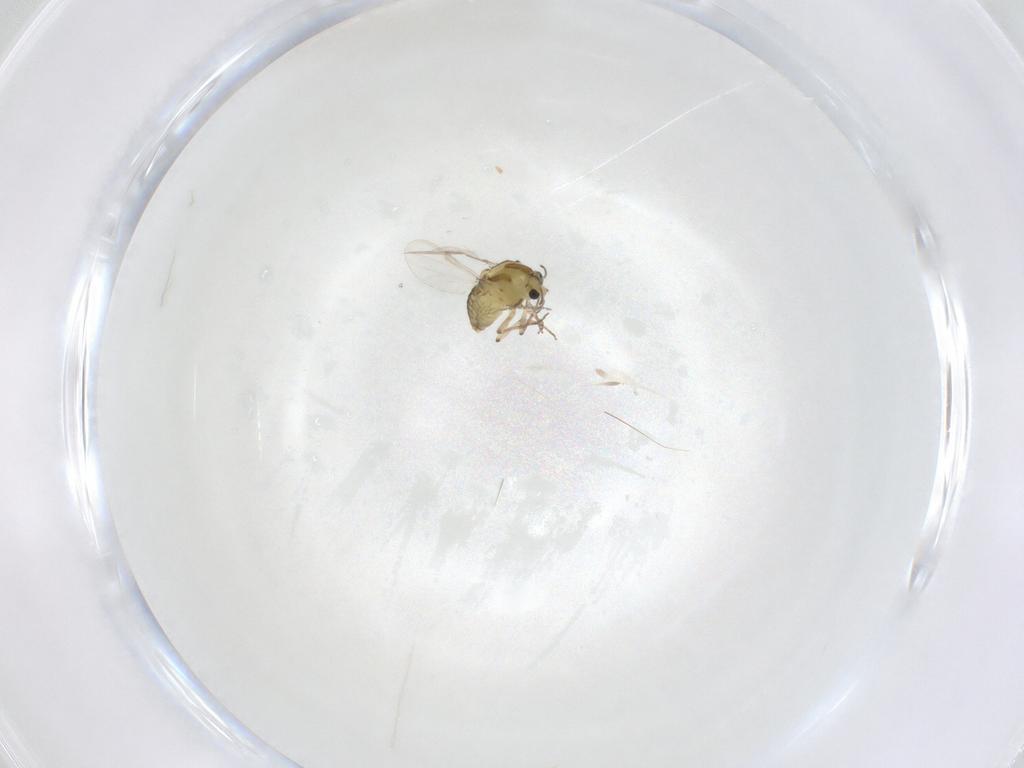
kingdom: Animalia
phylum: Arthropoda
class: Insecta
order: Diptera
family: Chironomidae
